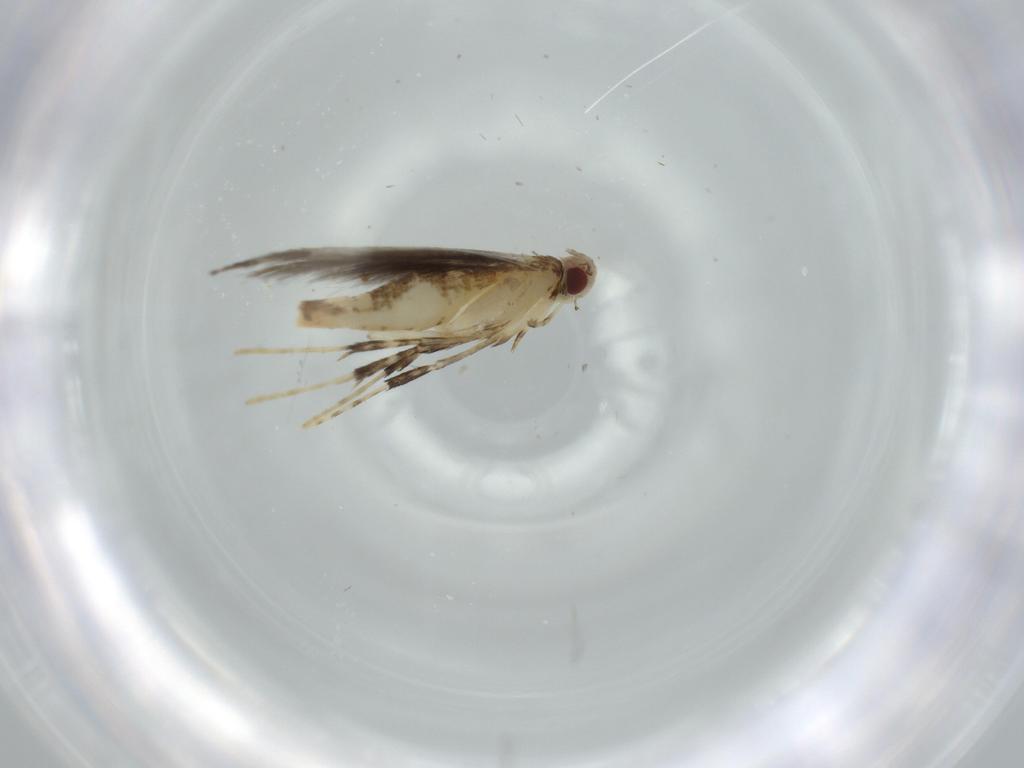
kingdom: Animalia
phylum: Arthropoda
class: Insecta
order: Lepidoptera
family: Gracillariidae
